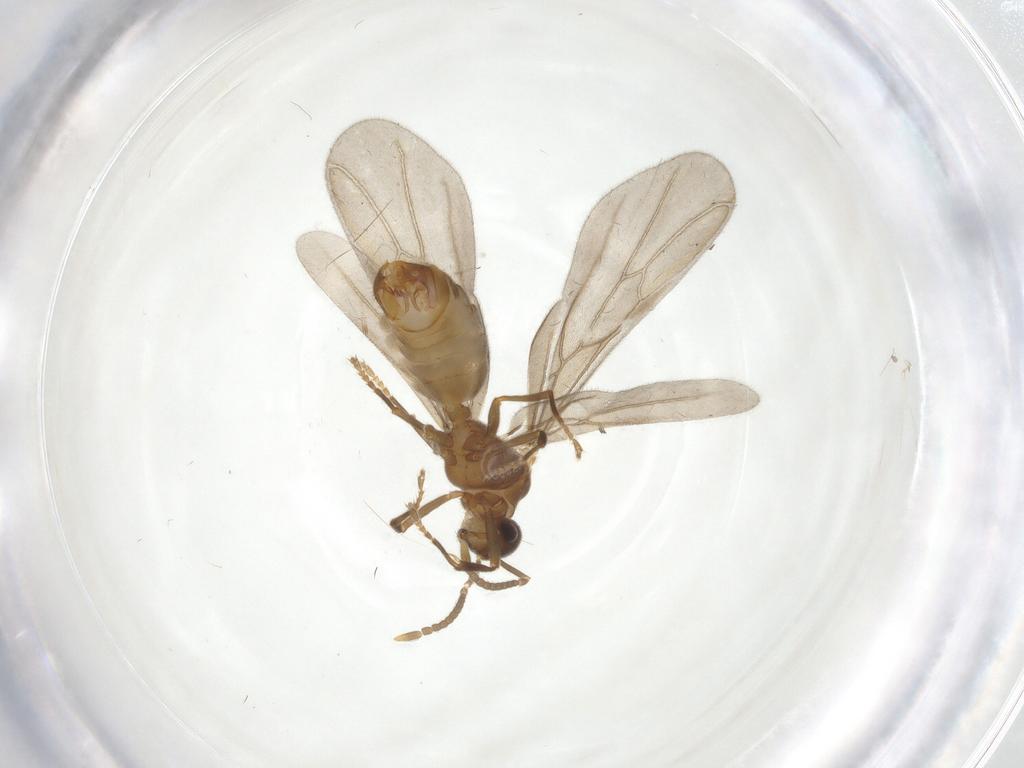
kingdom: Animalia
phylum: Arthropoda
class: Insecta
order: Hymenoptera
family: Formicidae
